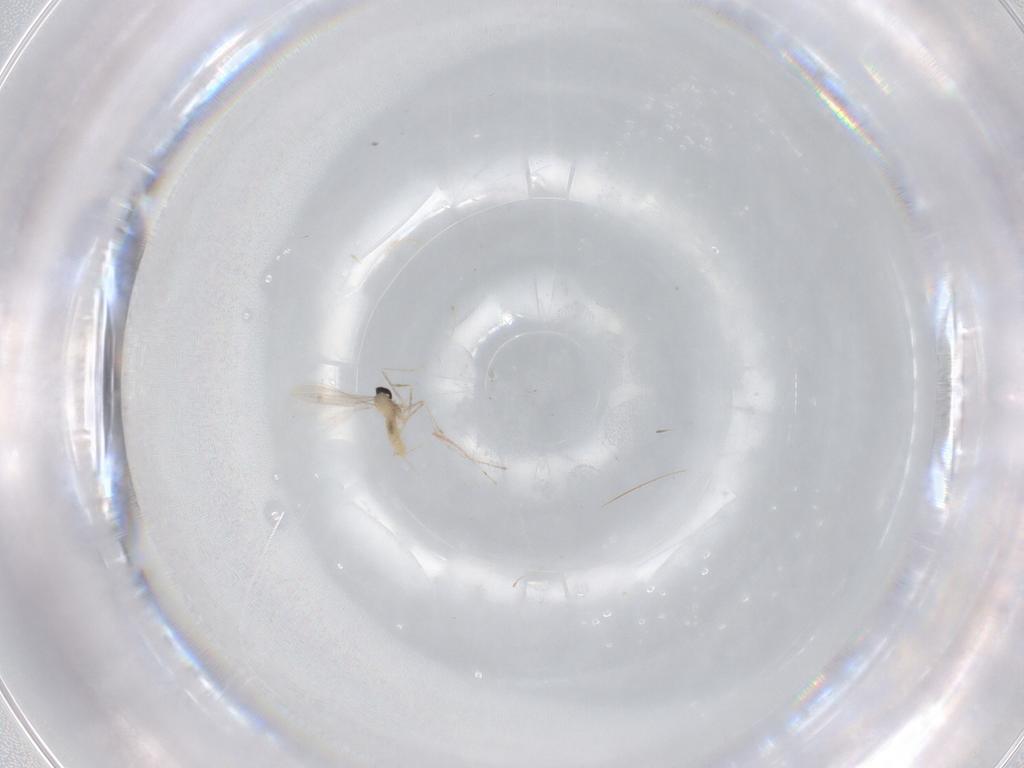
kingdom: Animalia
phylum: Arthropoda
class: Insecta
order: Diptera
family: Cecidomyiidae
